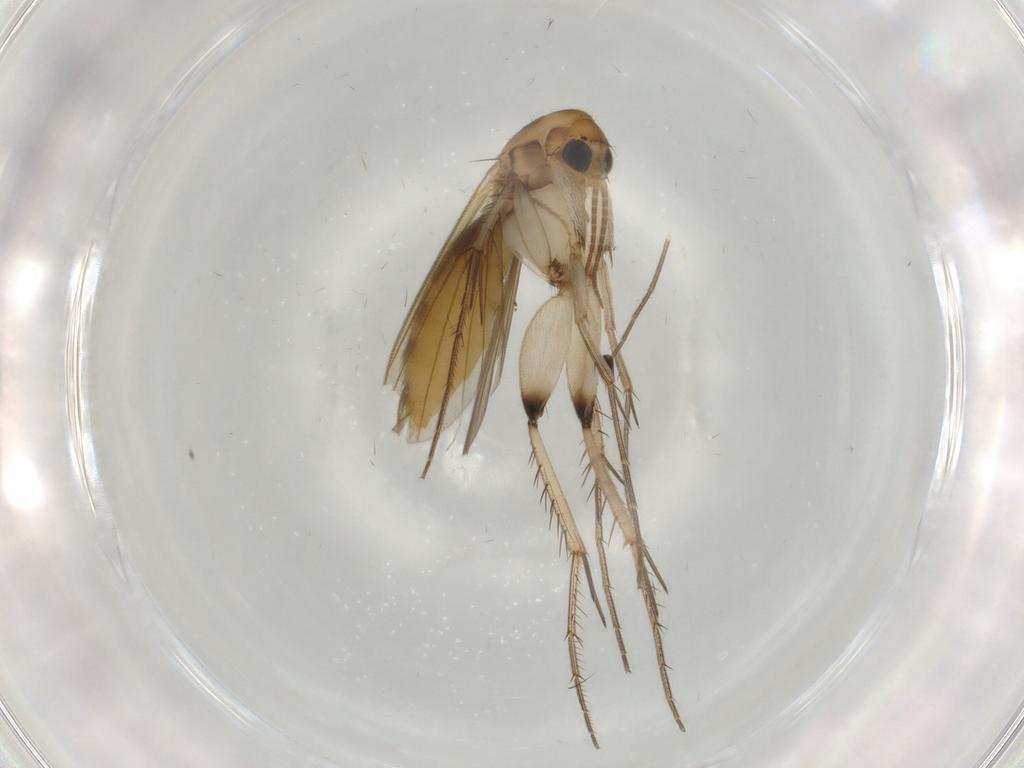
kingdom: Animalia
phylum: Arthropoda
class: Insecta
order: Diptera
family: Mycetophilidae
